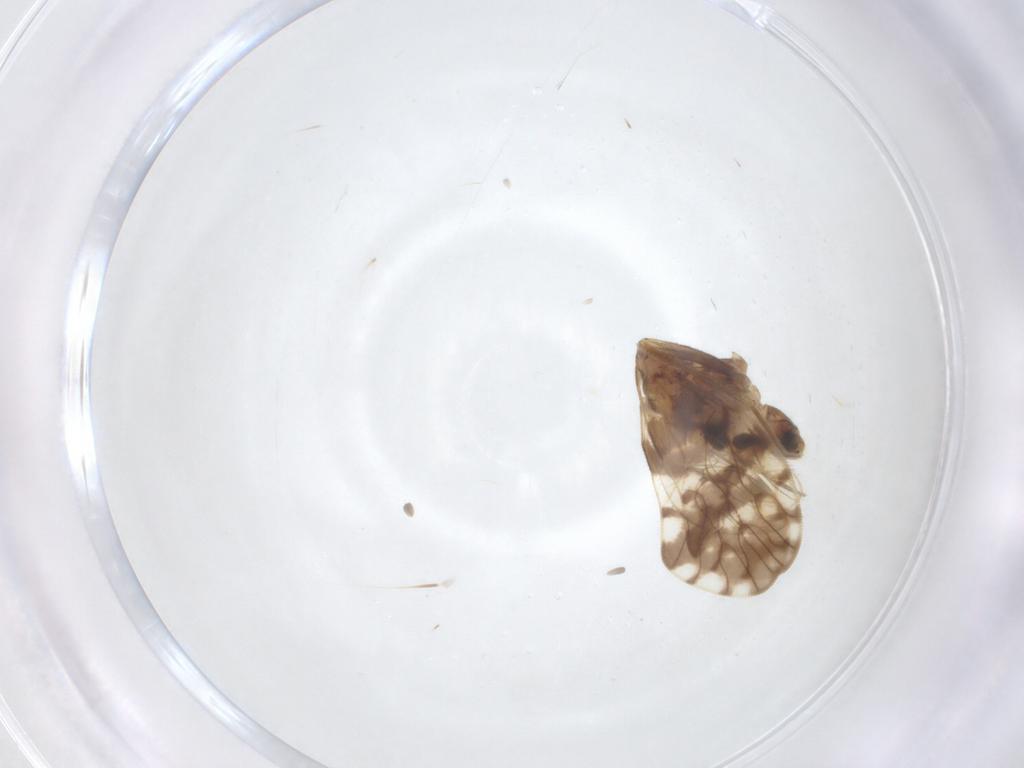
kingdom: Animalia
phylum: Arthropoda
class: Insecta
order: Psocodea
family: Epipsocidae
